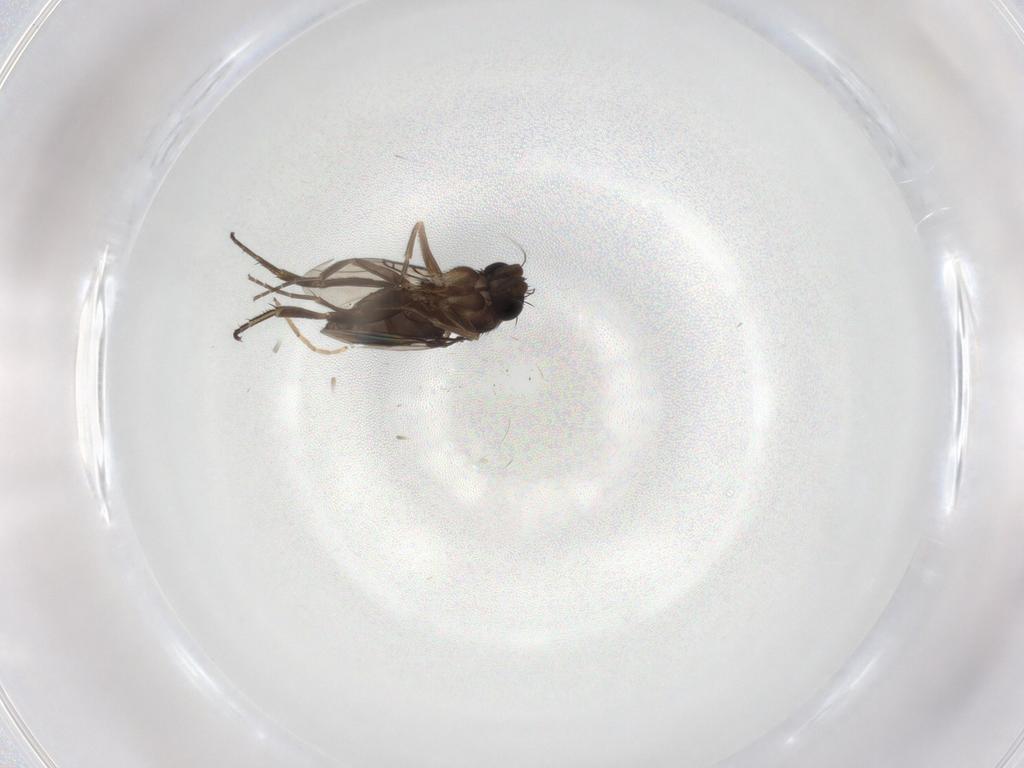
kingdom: Animalia
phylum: Arthropoda
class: Insecta
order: Diptera
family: Phoridae
